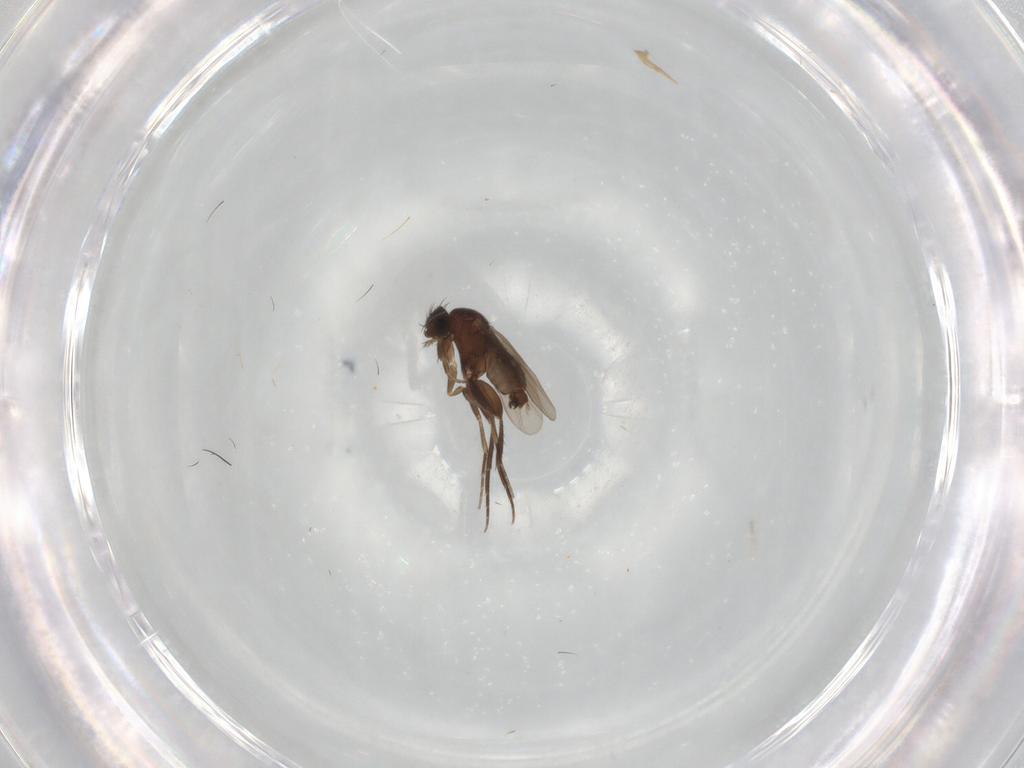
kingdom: Animalia
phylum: Arthropoda
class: Insecta
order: Diptera
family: Phoridae
